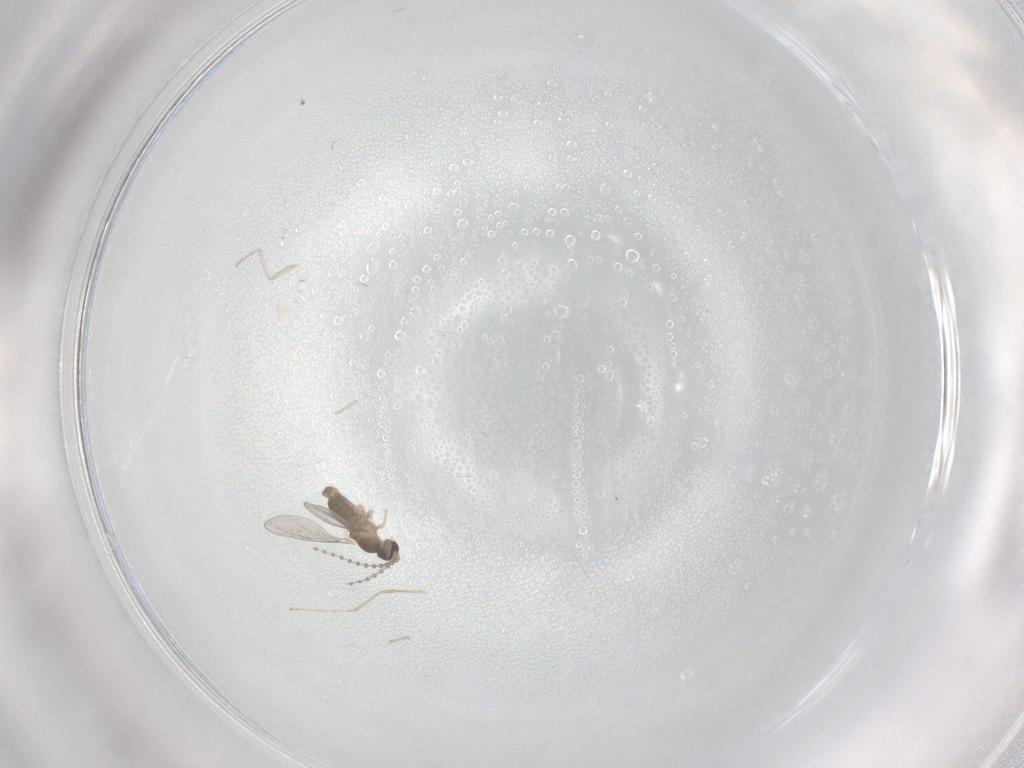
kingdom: Animalia
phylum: Arthropoda
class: Insecta
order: Diptera
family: Cecidomyiidae
